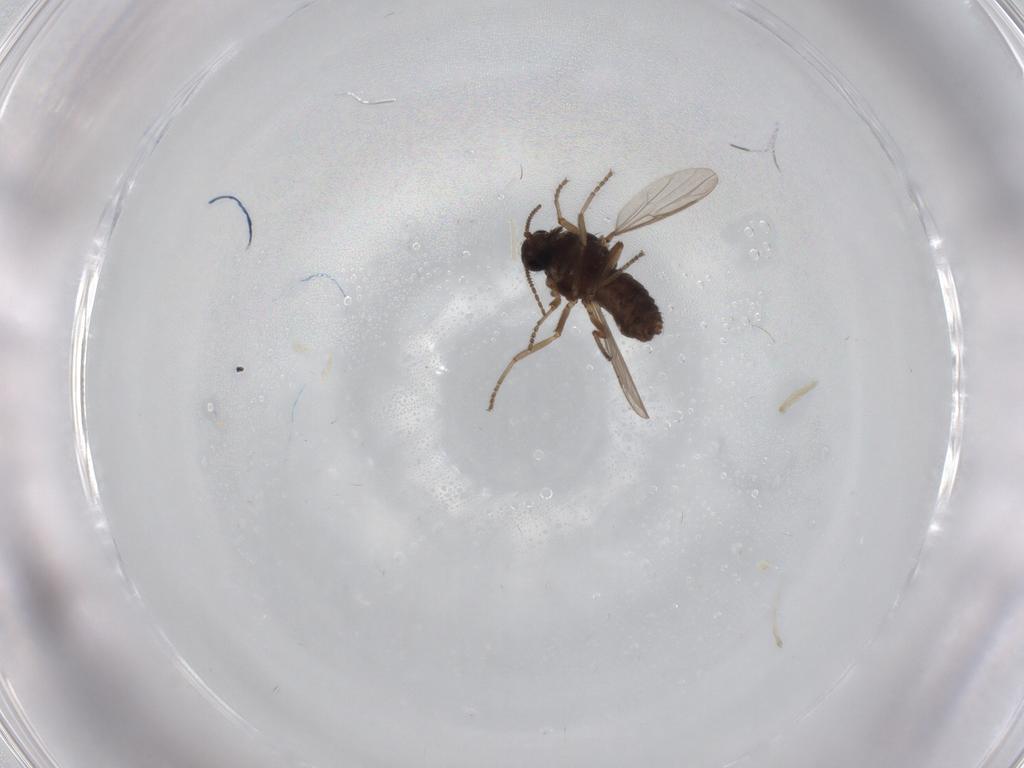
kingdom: Animalia
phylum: Arthropoda
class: Insecta
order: Diptera
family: Ceratopogonidae
